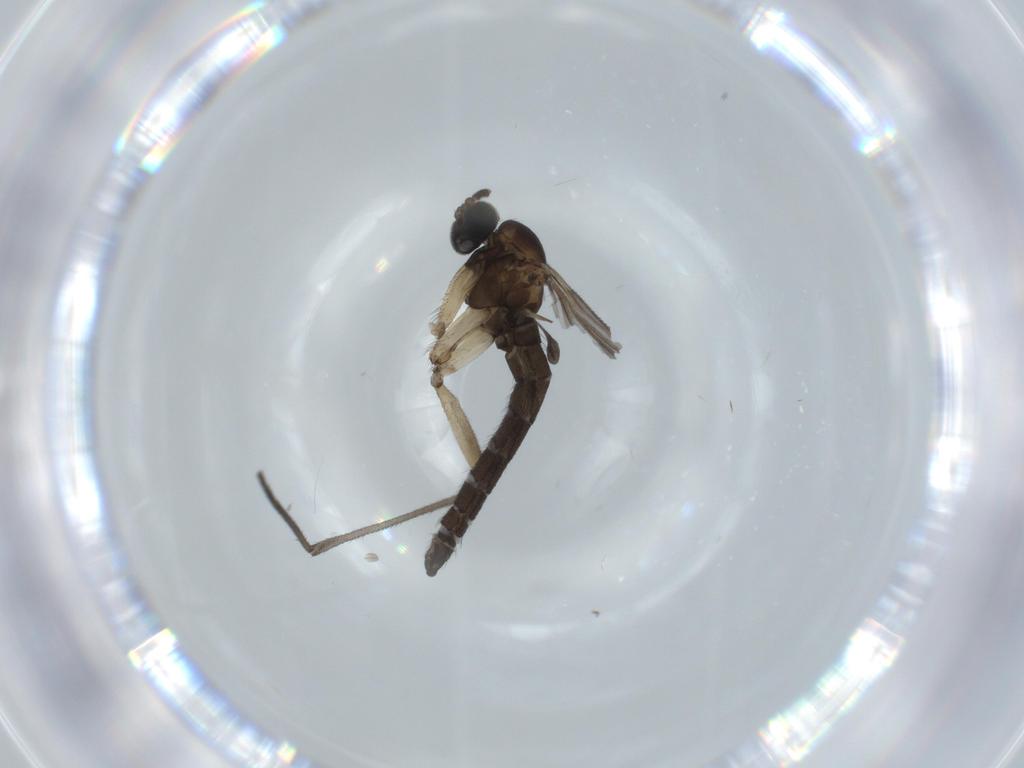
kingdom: Animalia
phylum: Arthropoda
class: Insecta
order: Diptera
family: Sciaridae
